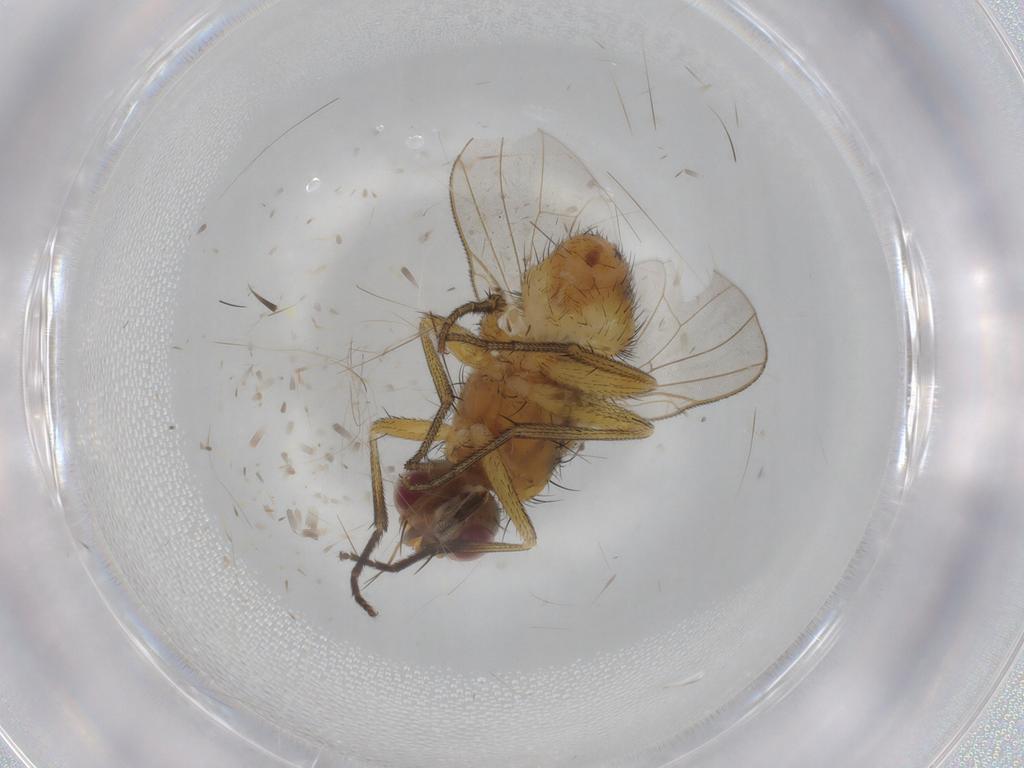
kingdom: Animalia
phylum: Arthropoda
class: Insecta
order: Diptera
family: Muscidae
